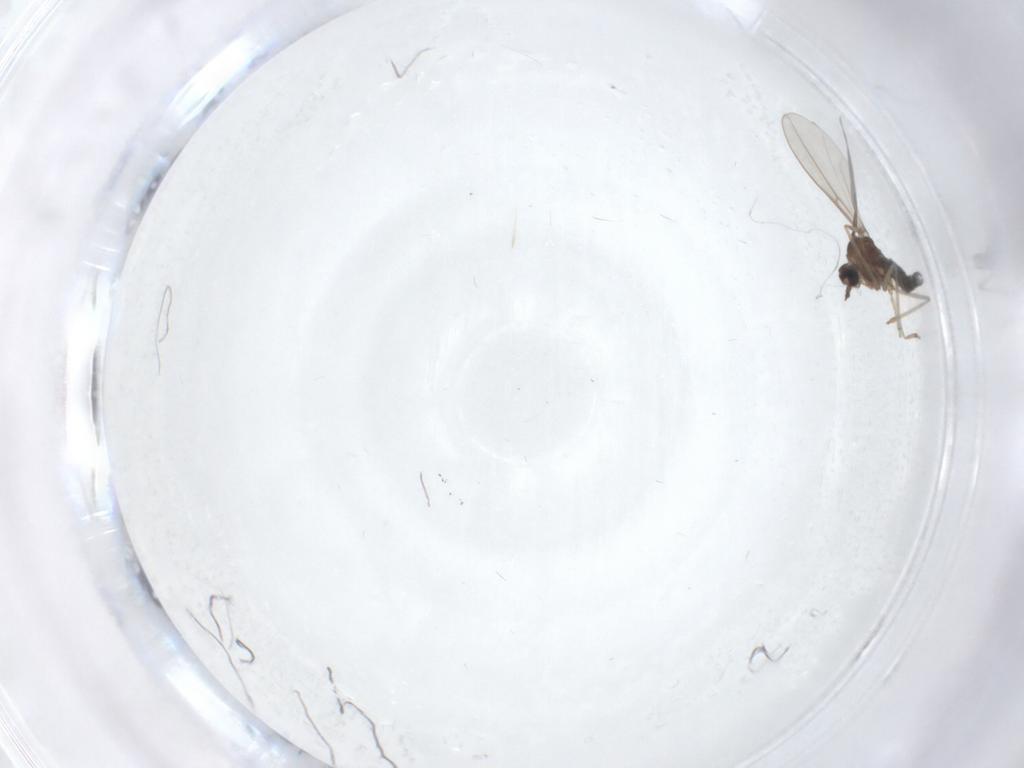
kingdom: Animalia
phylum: Arthropoda
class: Insecta
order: Diptera
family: Cecidomyiidae
